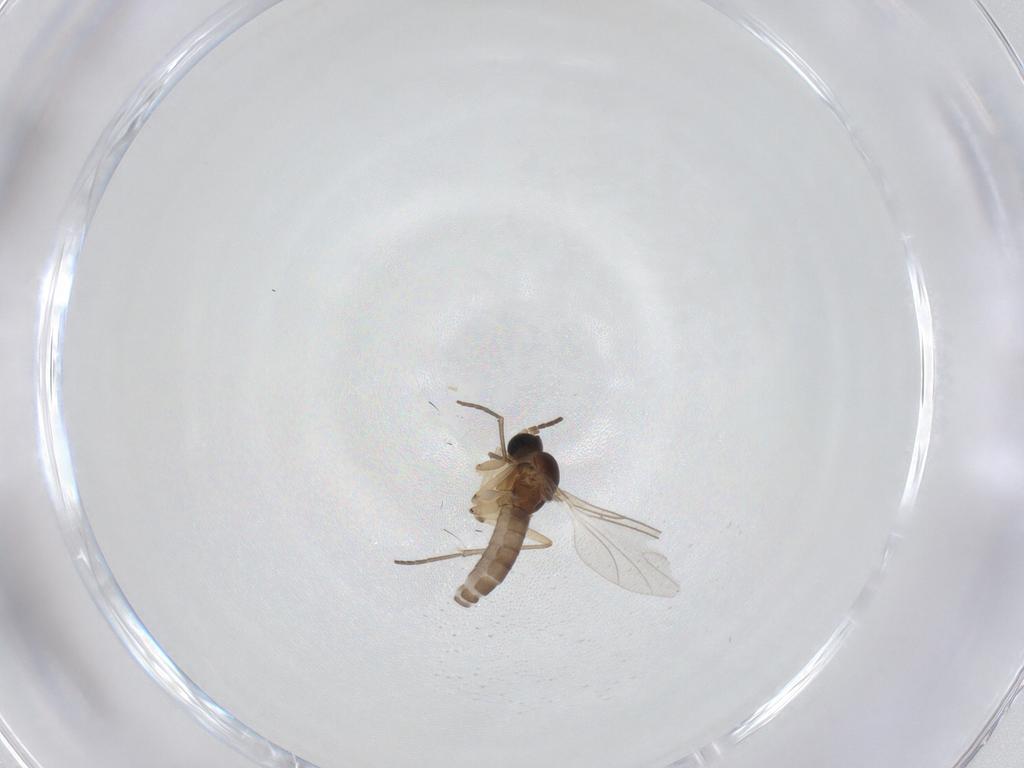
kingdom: Animalia
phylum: Arthropoda
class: Insecta
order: Diptera
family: Sciaridae
